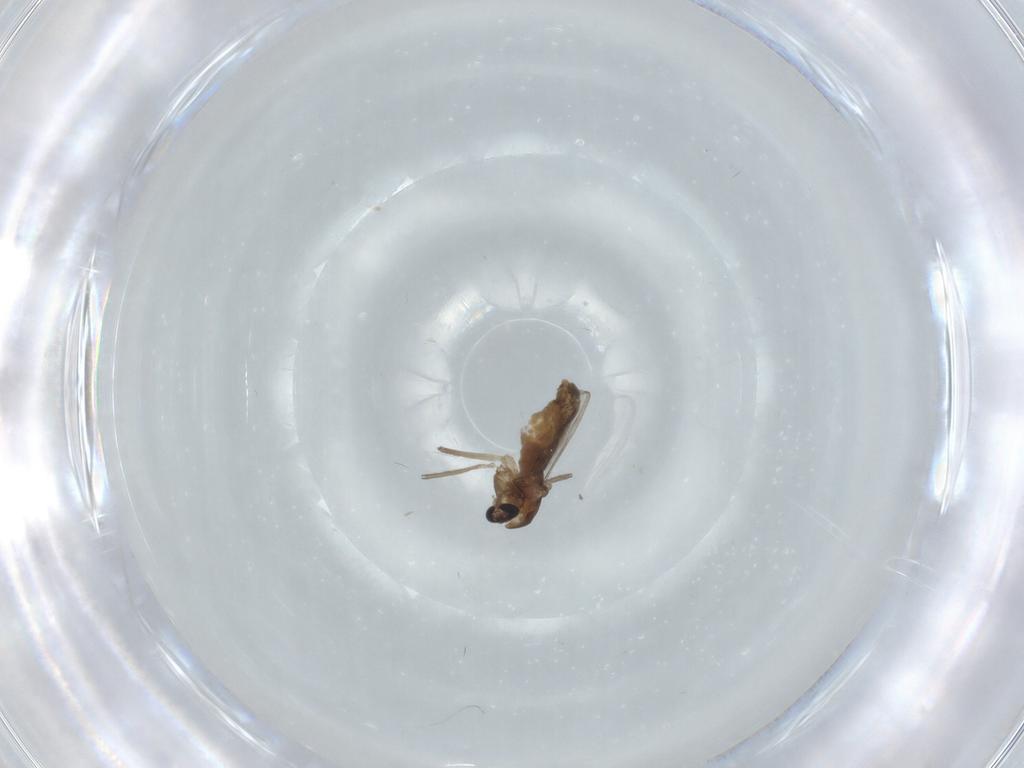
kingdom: Animalia
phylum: Arthropoda
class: Insecta
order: Diptera
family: Chironomidae
